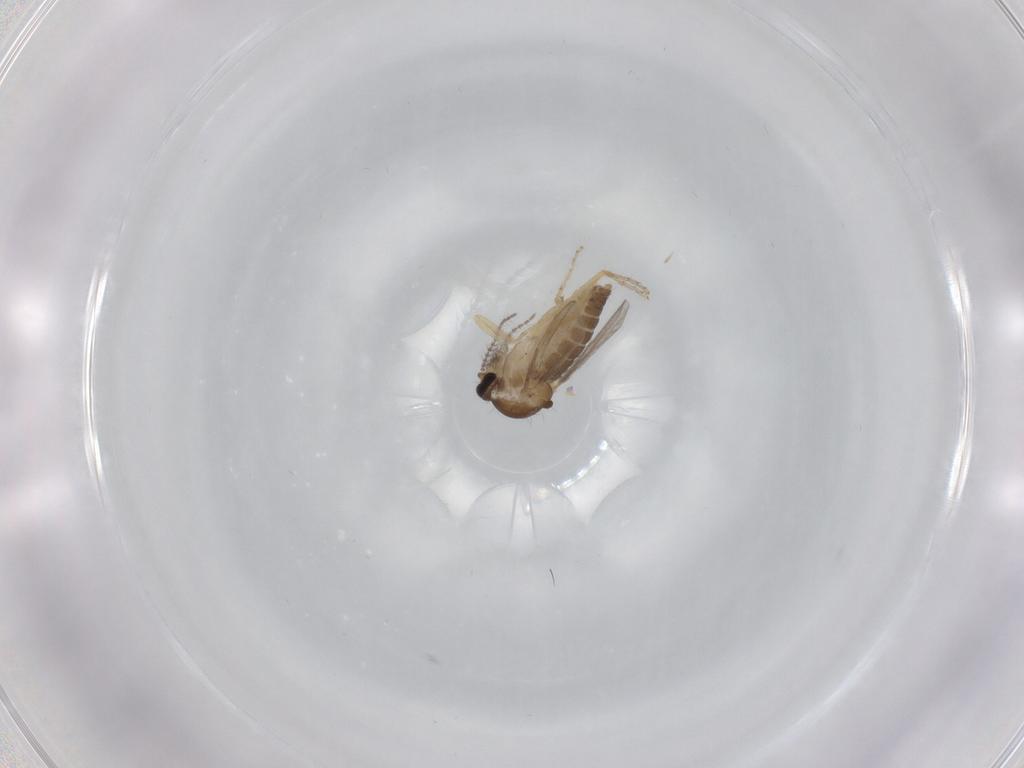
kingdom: Animalia
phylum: Arthropoda
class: Insecta
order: Diptera
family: Ceratopogonidae
